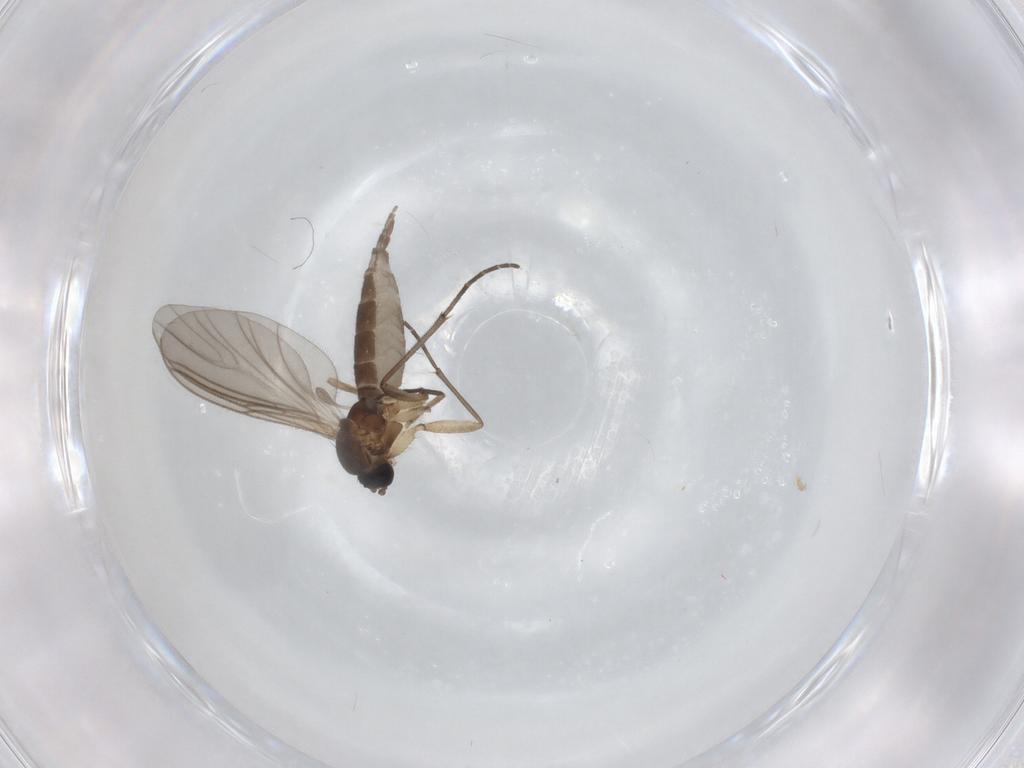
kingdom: Animalia
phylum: Arthropoda
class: Insecta
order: Diptera
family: Sciaridae
